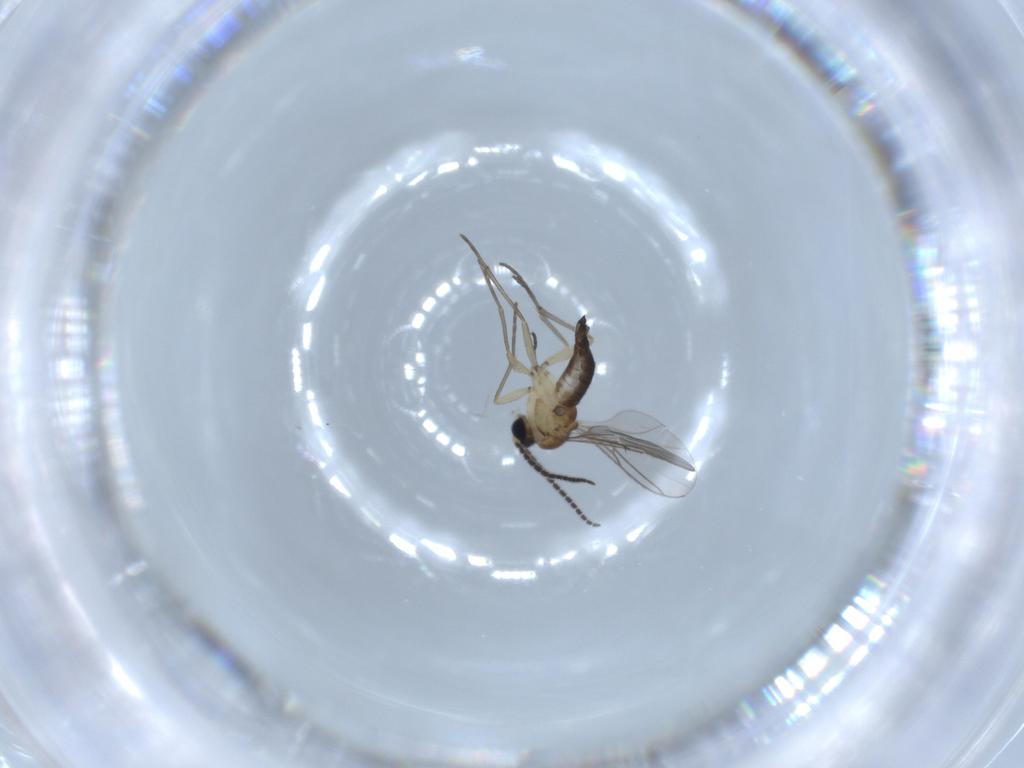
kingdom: Animalia
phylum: Arthropoda
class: Insecta
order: Diptera
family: Sciaridae
